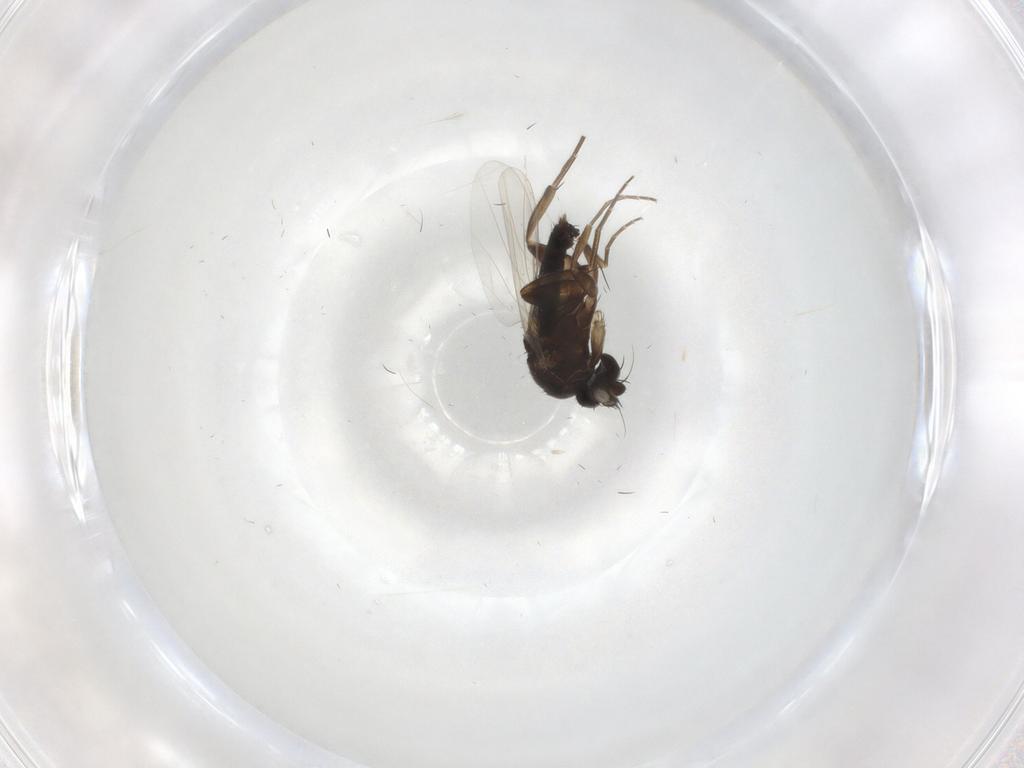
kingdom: Animalia
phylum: Arthropoda
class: Insecta
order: Diptera
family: Phoridae
